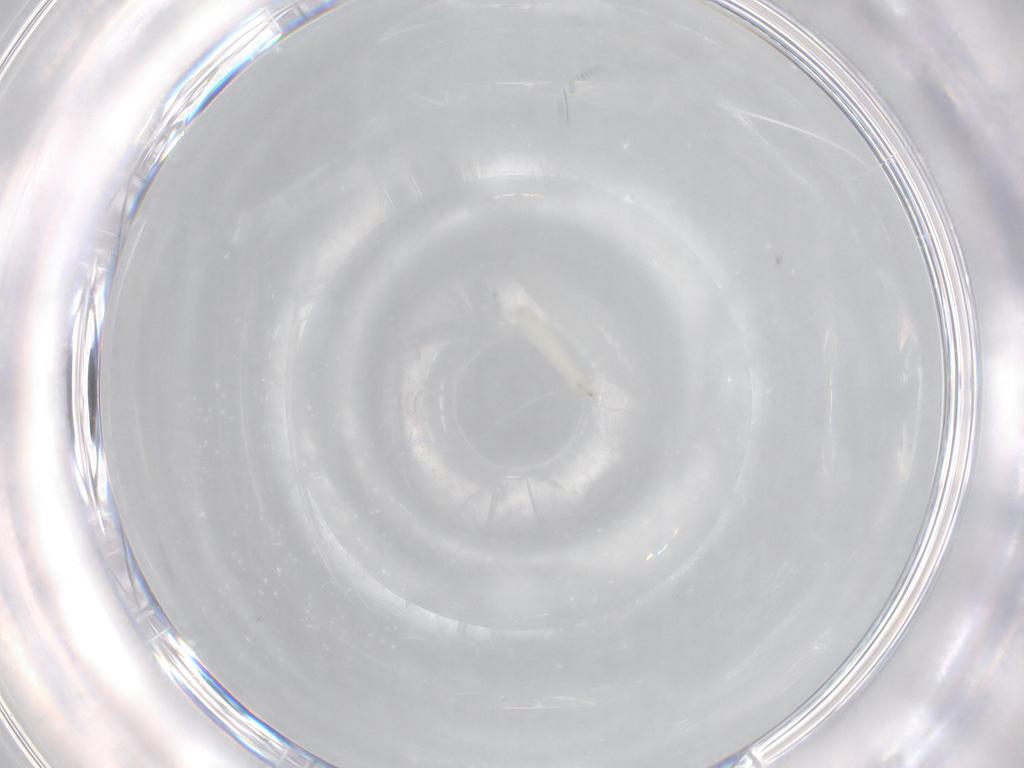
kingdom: Animalia
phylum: Arthropoda
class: Insecta
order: Diptera
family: Sarcophagidae
